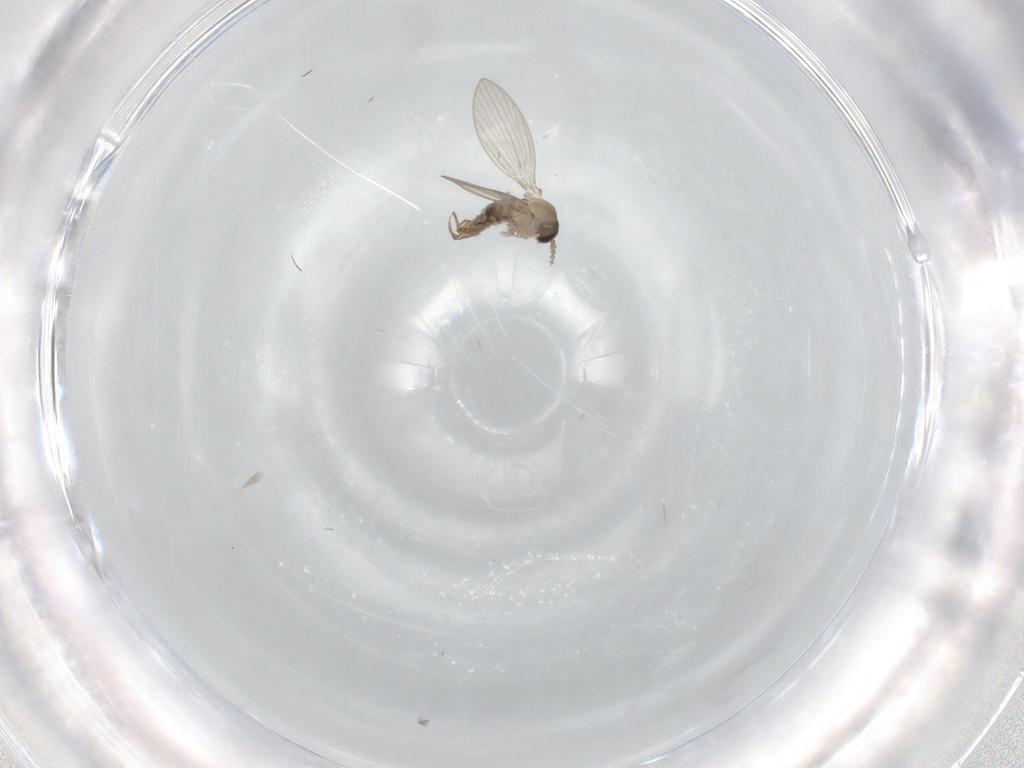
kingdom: Animalia
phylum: Arthropoda
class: Insecta
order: Diptera
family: Psychodidae
